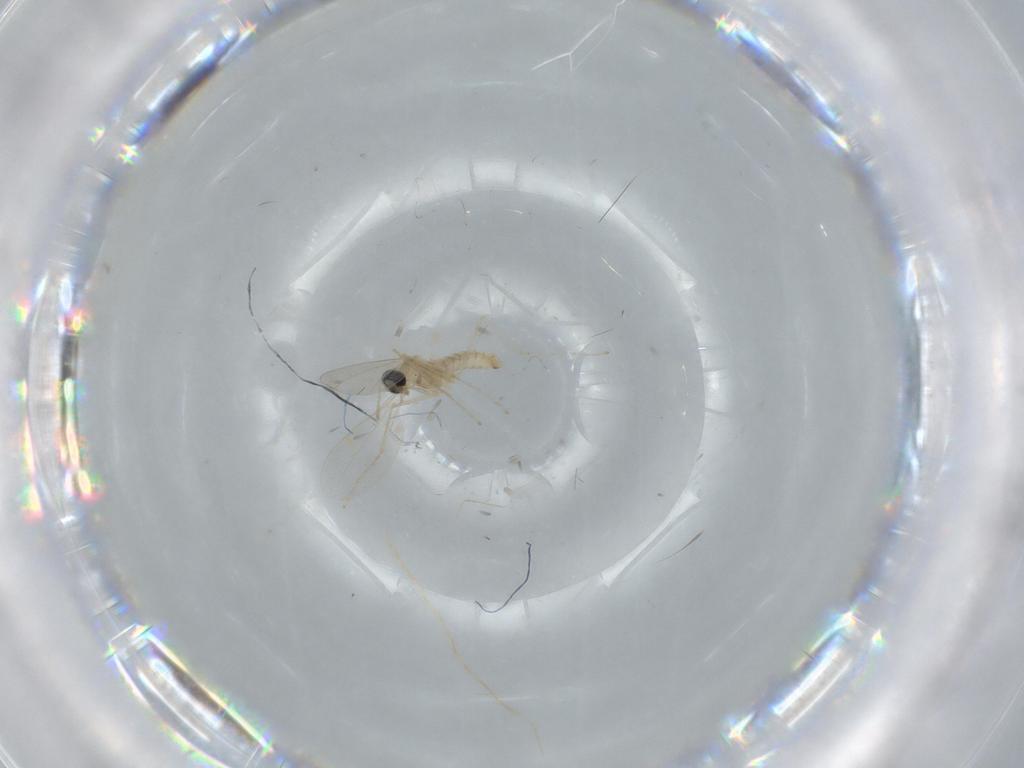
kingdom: Animalia
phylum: Arthropoda
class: Insecta
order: Diptera
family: Cecidomyiidae
